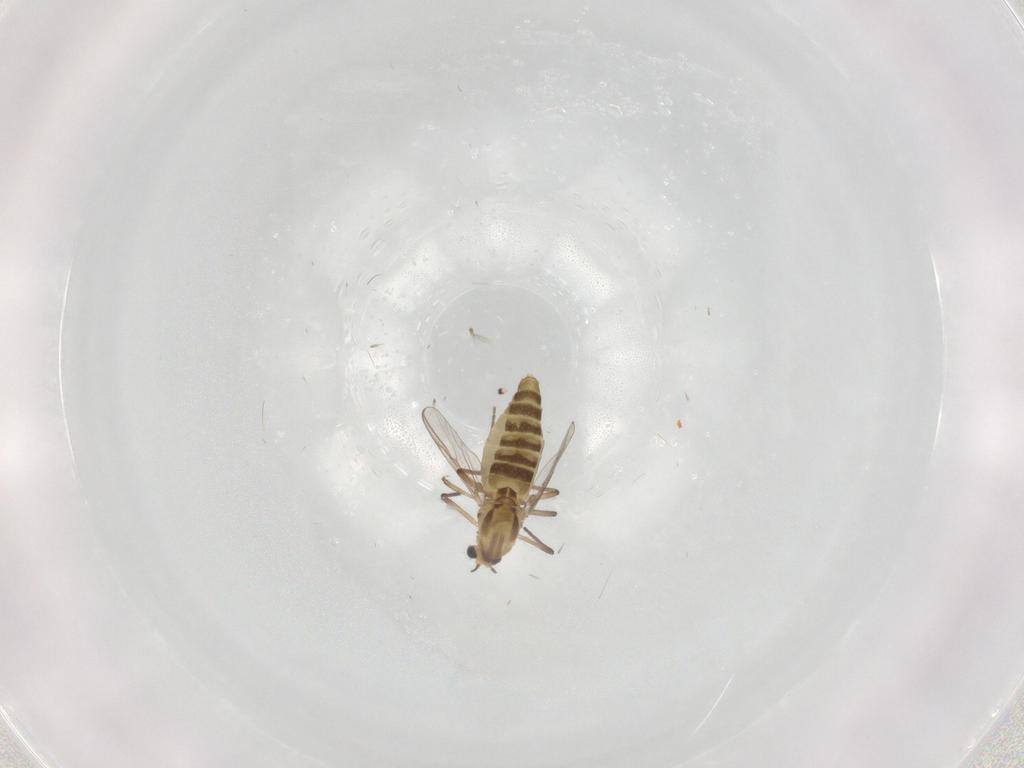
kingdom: Animalia
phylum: Arthropoda
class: Insecta
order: Diptera
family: Chironomidae
